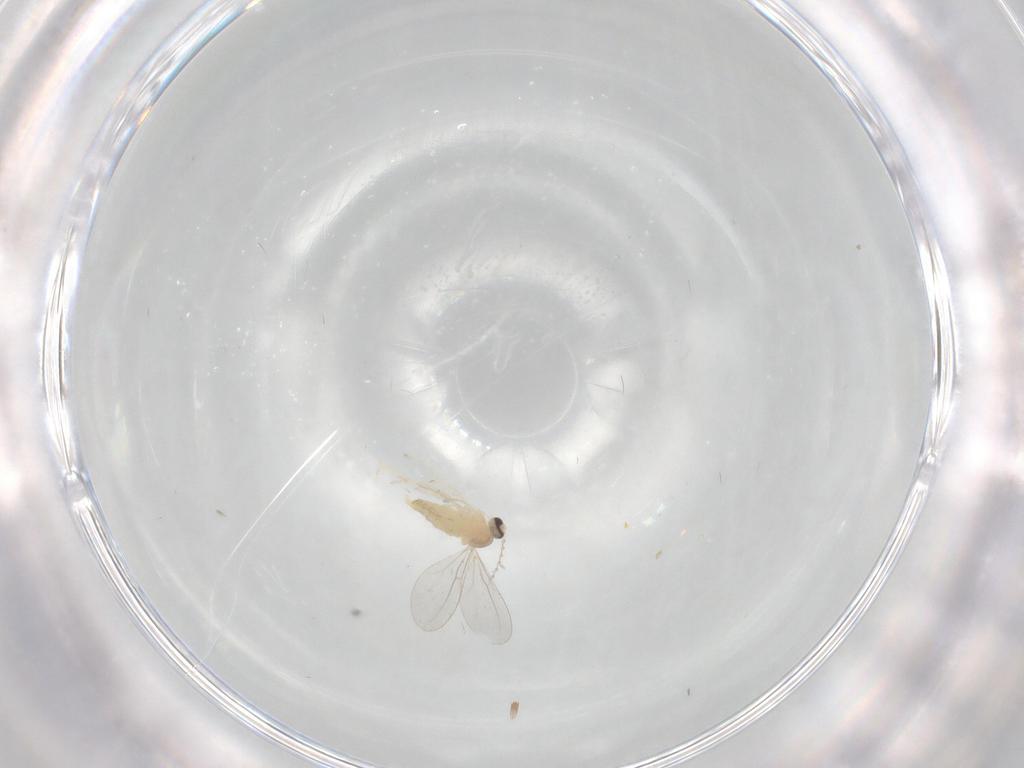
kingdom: Animalia
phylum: Arthropoda
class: Insecta
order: Diptera
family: Cecidomyiidae
